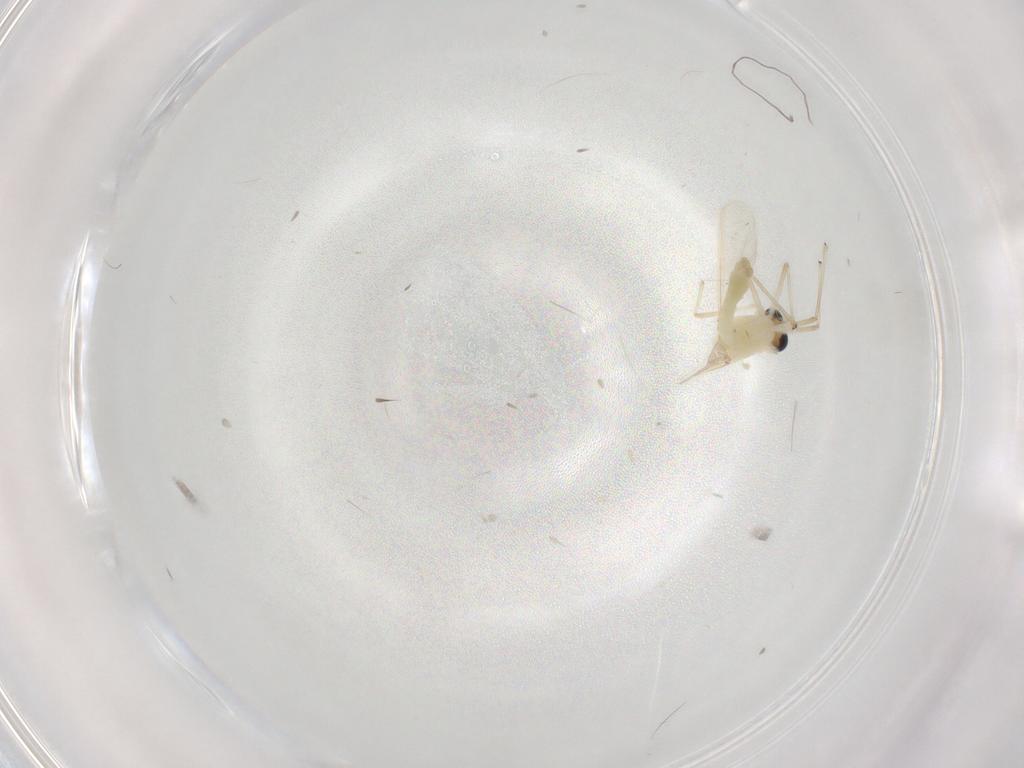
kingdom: Animalia
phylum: Arthropoda
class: Insecta
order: Diptera
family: Chironomidae
